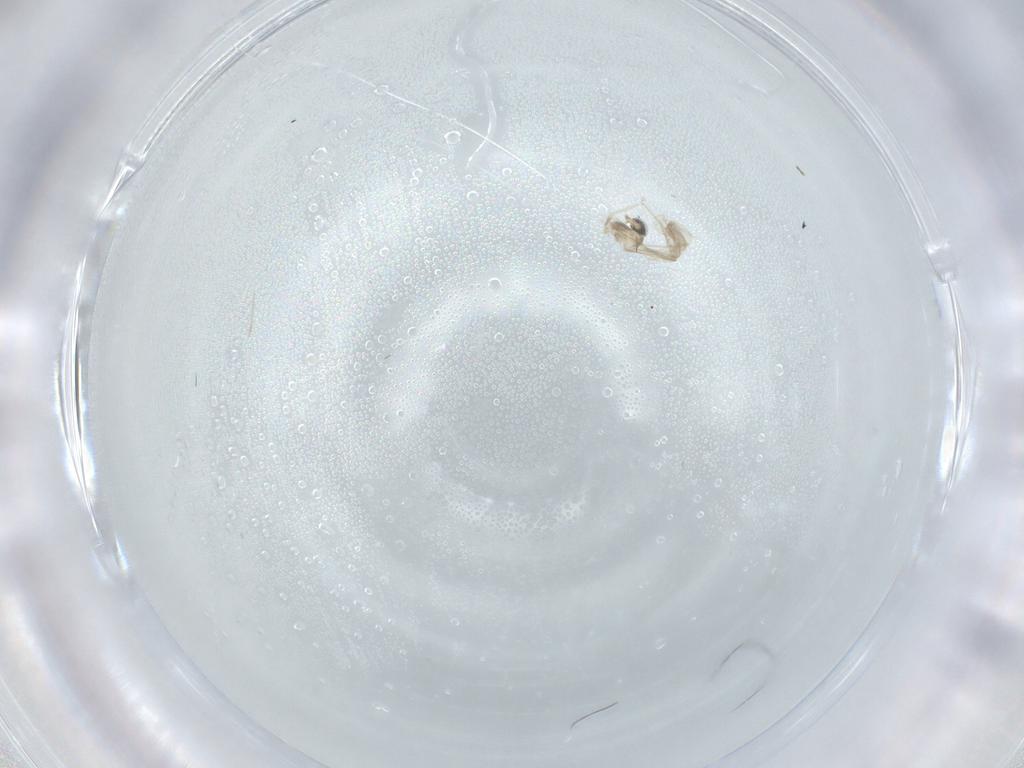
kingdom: Animalia
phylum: Arthropoda
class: Insecta
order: Diptera
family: Cecidomyiidae
